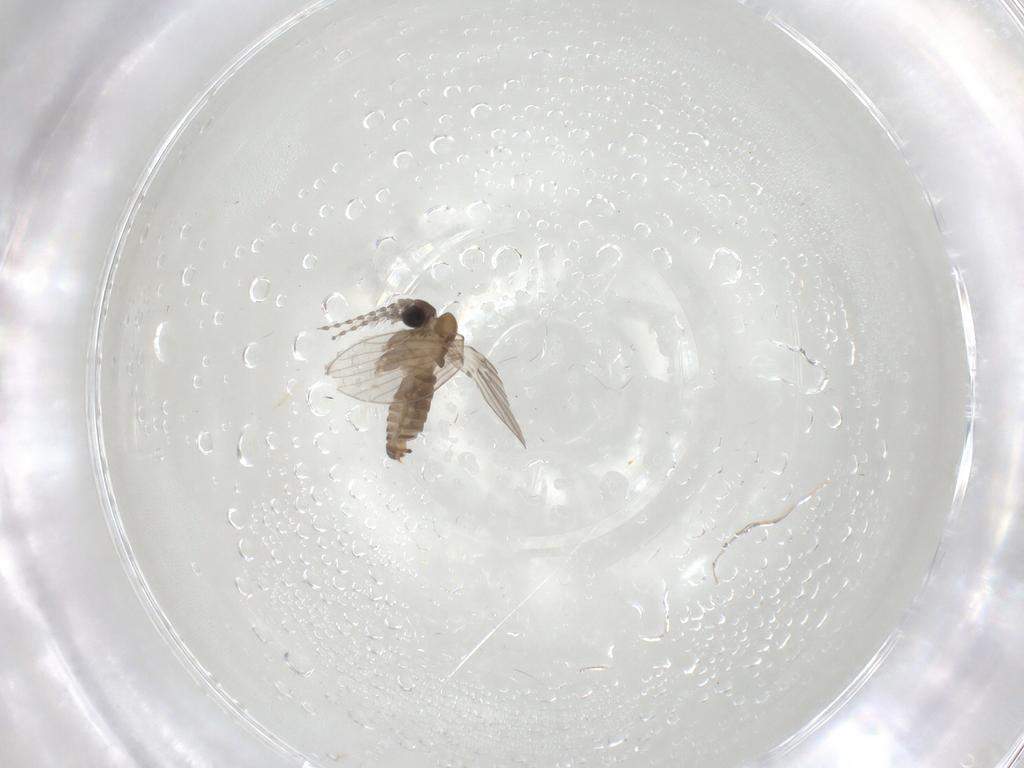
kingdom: Animalia
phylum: Arthropoda
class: Insecta
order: Diptera
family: Psychodidae
